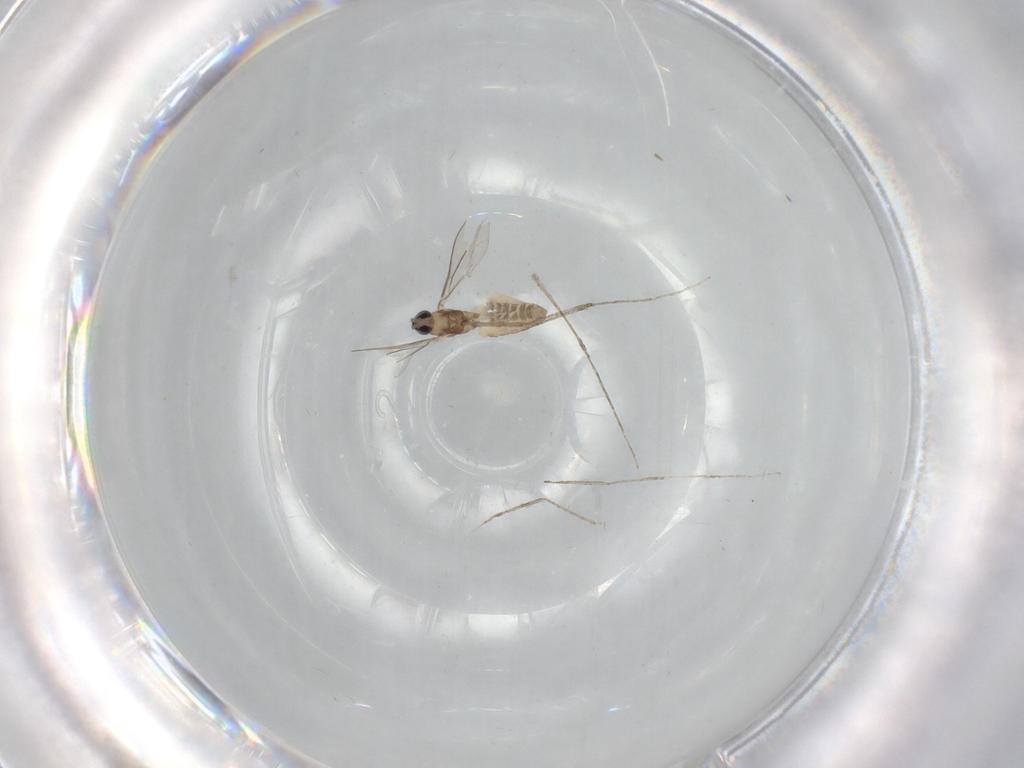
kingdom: Animalia
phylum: Arthropoda
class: Insecta
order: Diptera
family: Cecidomyiidae
